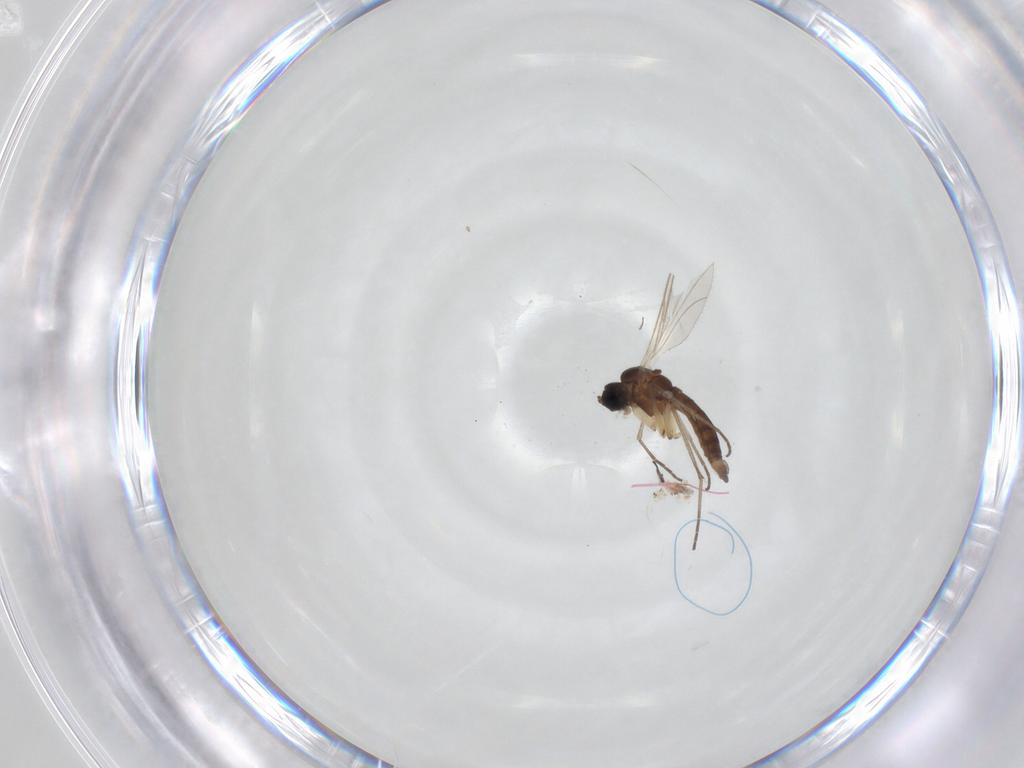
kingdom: Animalia
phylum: Arthropoda
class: Insecta
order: Diptera
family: Sciaridae
